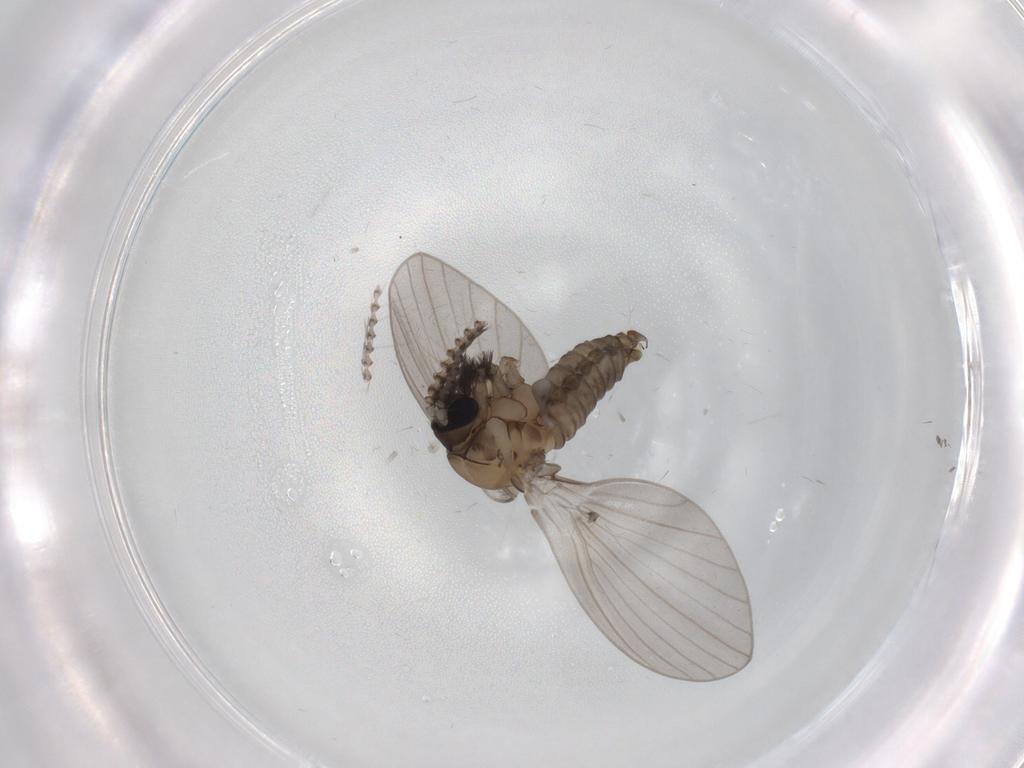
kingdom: Animalia
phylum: Arthropoda
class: Insecta
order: Diptera
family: Psychodidae
